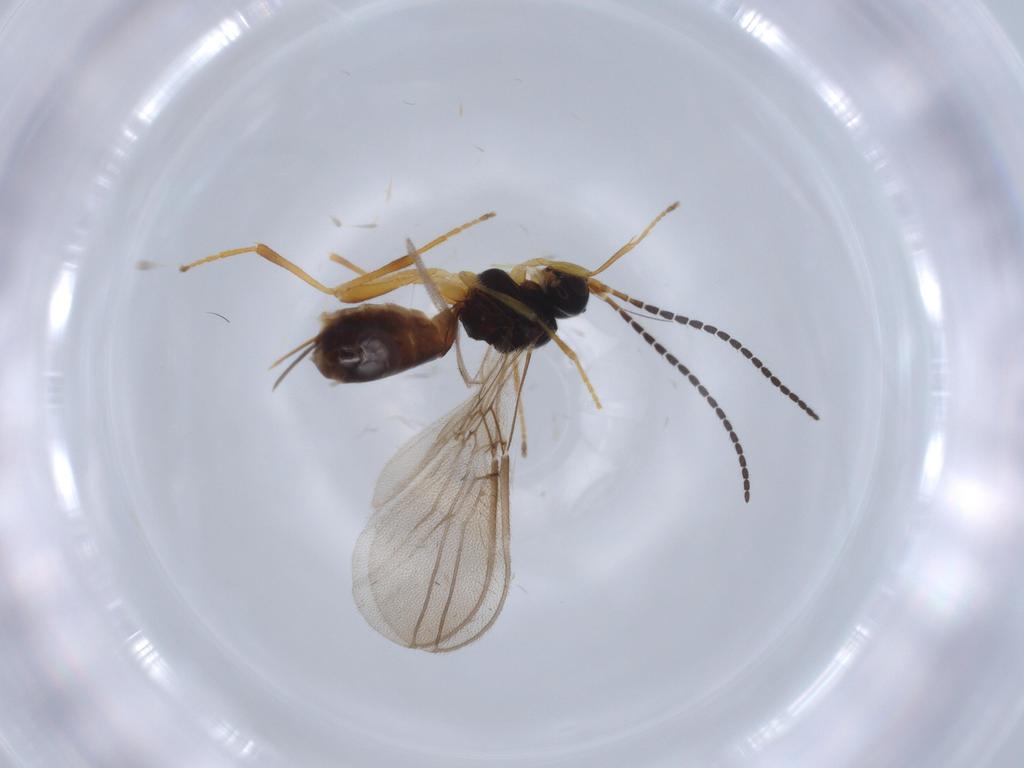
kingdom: Animalia
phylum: Arthropoda
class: Insecta
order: Hymenoptera
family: Braconidae
